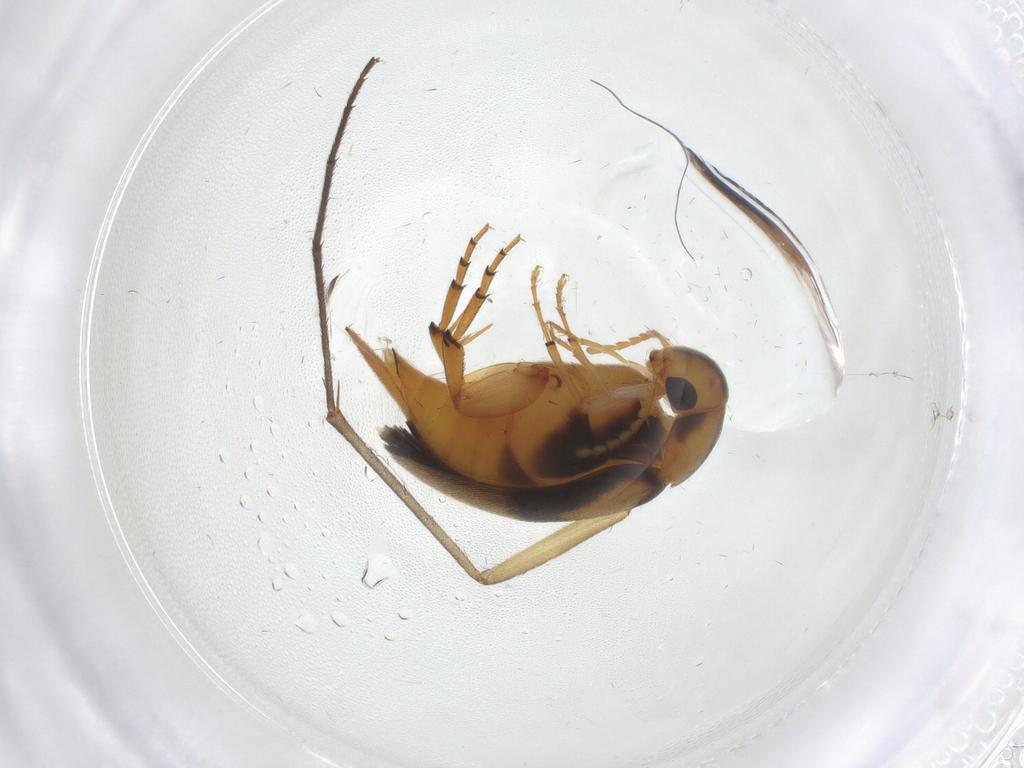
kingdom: Animalia
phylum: Arthropoda
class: Insecta
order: Coleoptera
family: Mordellidae
